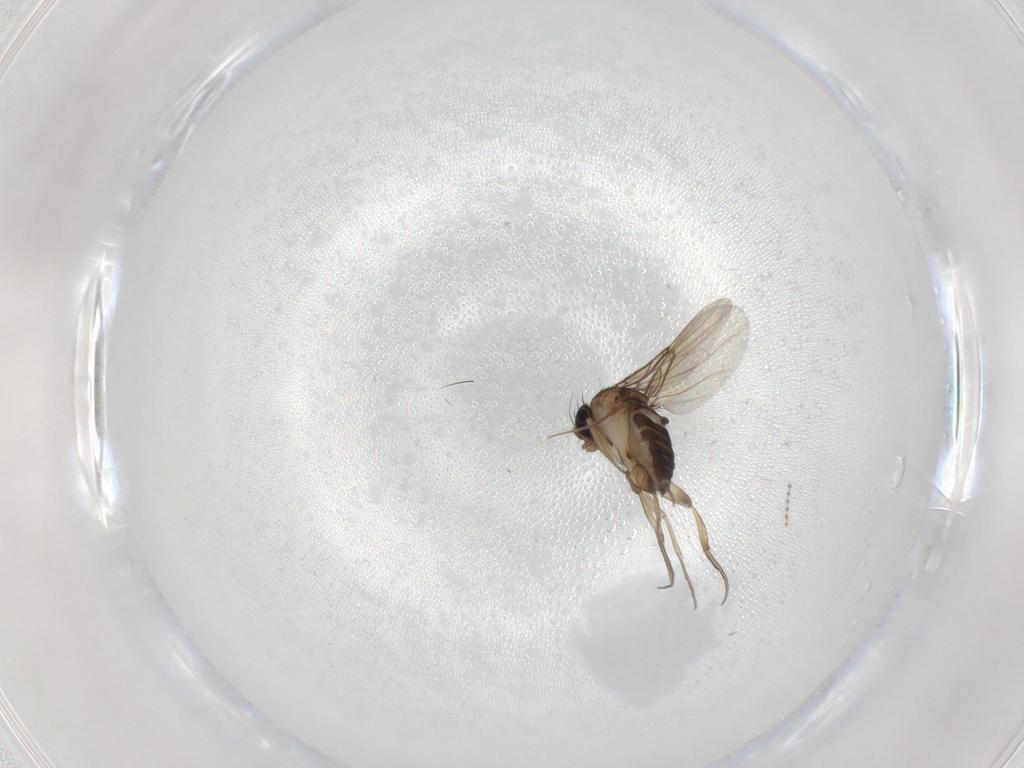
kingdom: Animalia
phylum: Arthropoda
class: Insecta
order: Diptera
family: Phoridae
